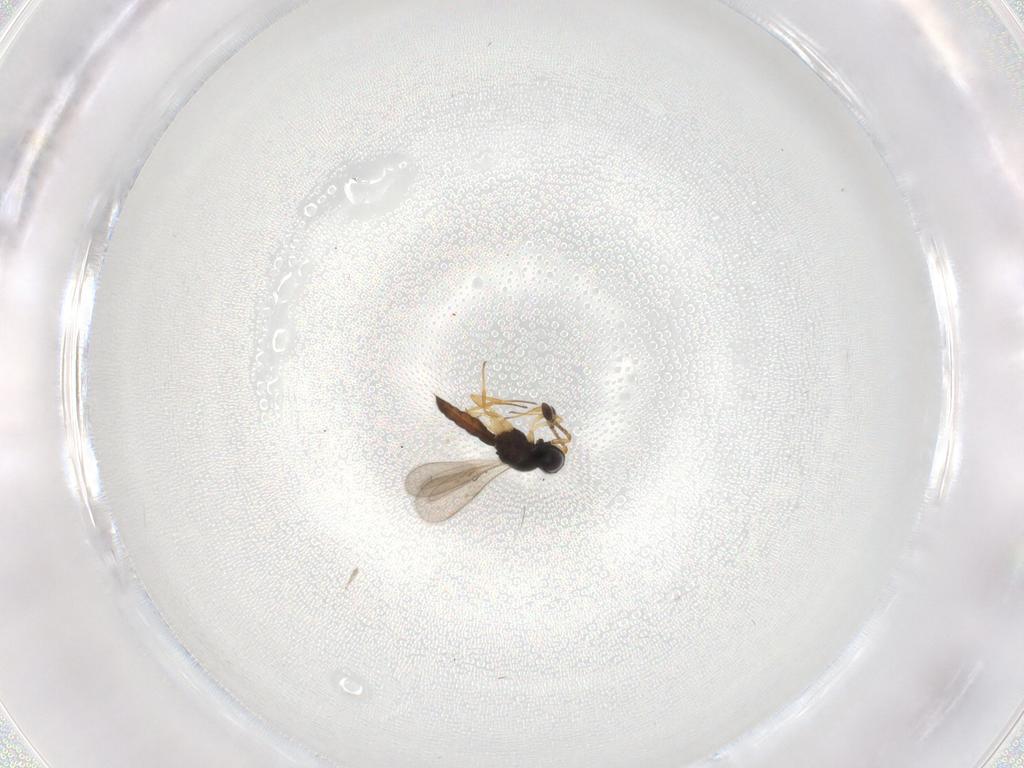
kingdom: Animalia
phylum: Arthropoda
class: Insecta
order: Hymenoptera
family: Scelionidae
